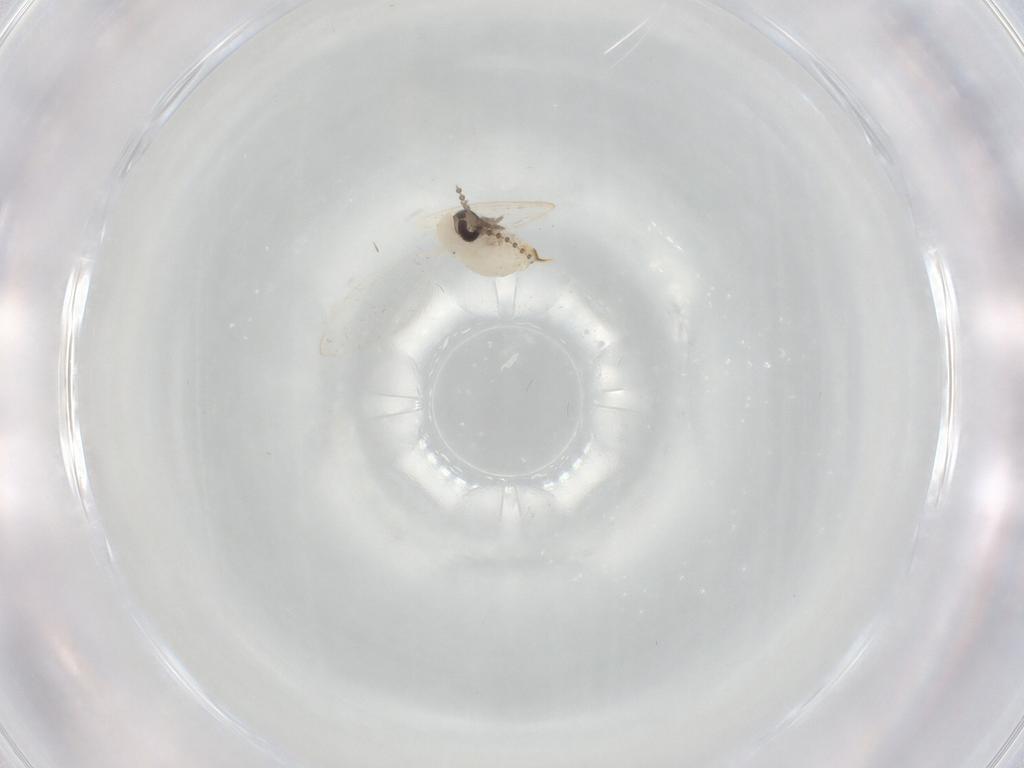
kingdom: Animalia
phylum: Arthropoda
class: Insecta
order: Diptera
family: Psychodidae
